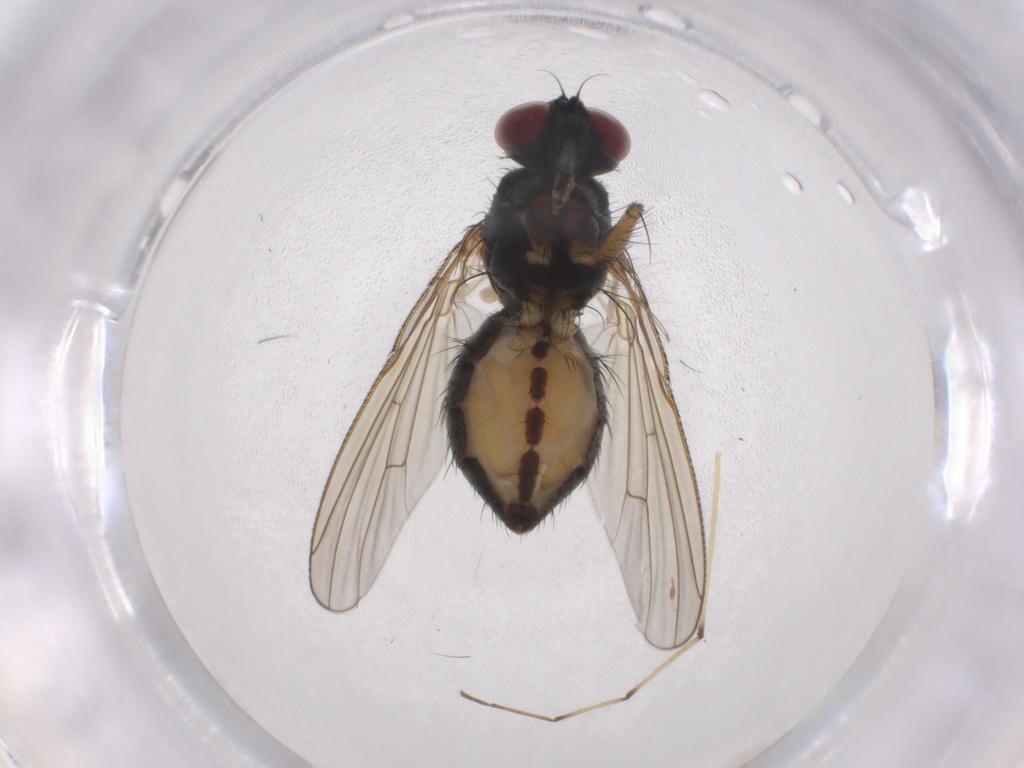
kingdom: Animalia
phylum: Arthropoda
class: Insecta
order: Diptera
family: Muscidae
